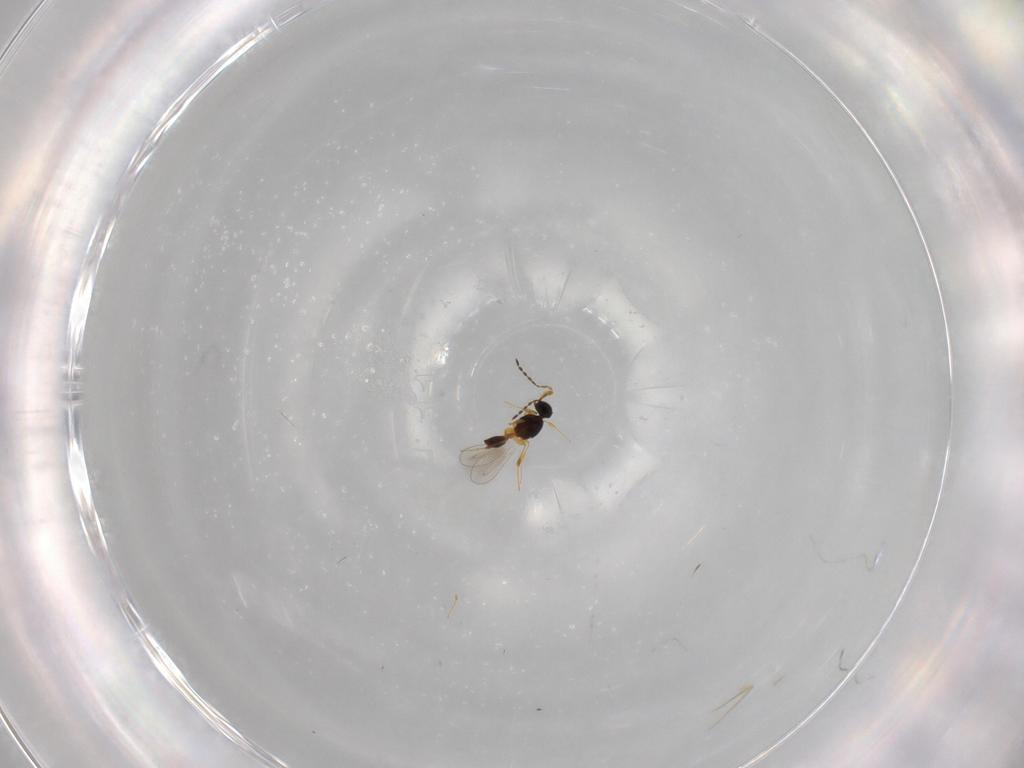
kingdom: Animalia
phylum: Arthropoda
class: Insecta
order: Hymenoptera
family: Platygastridae
